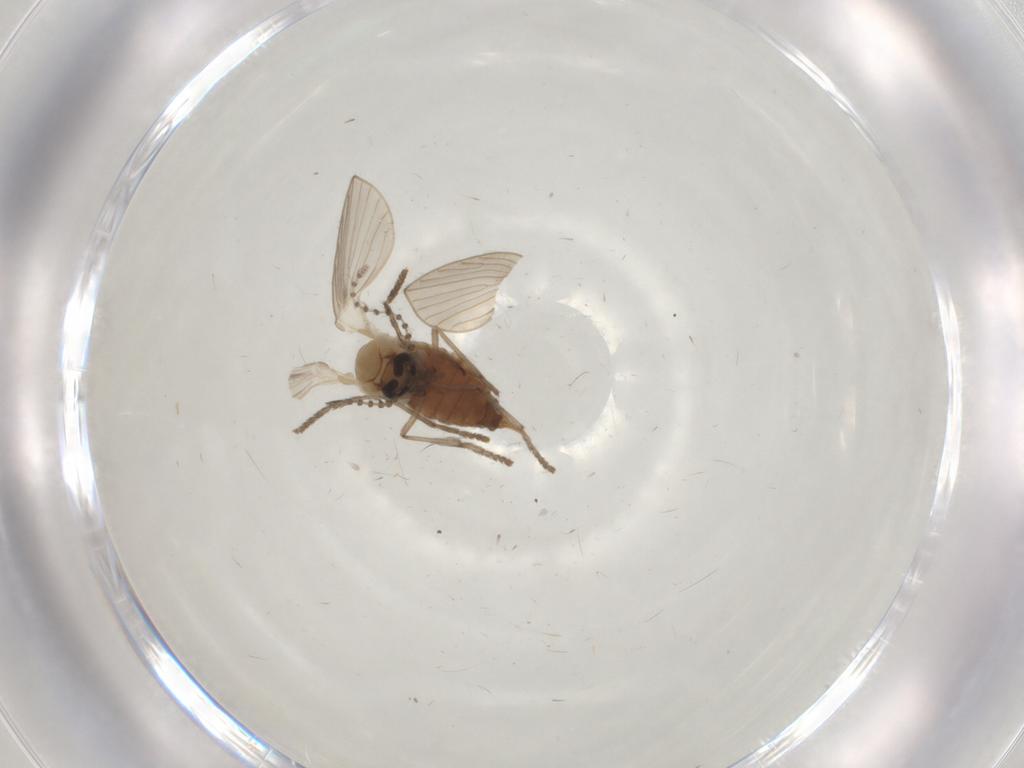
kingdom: Animalia
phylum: Arthropoda
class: Insecta
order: Diptera
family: Psychodidae
